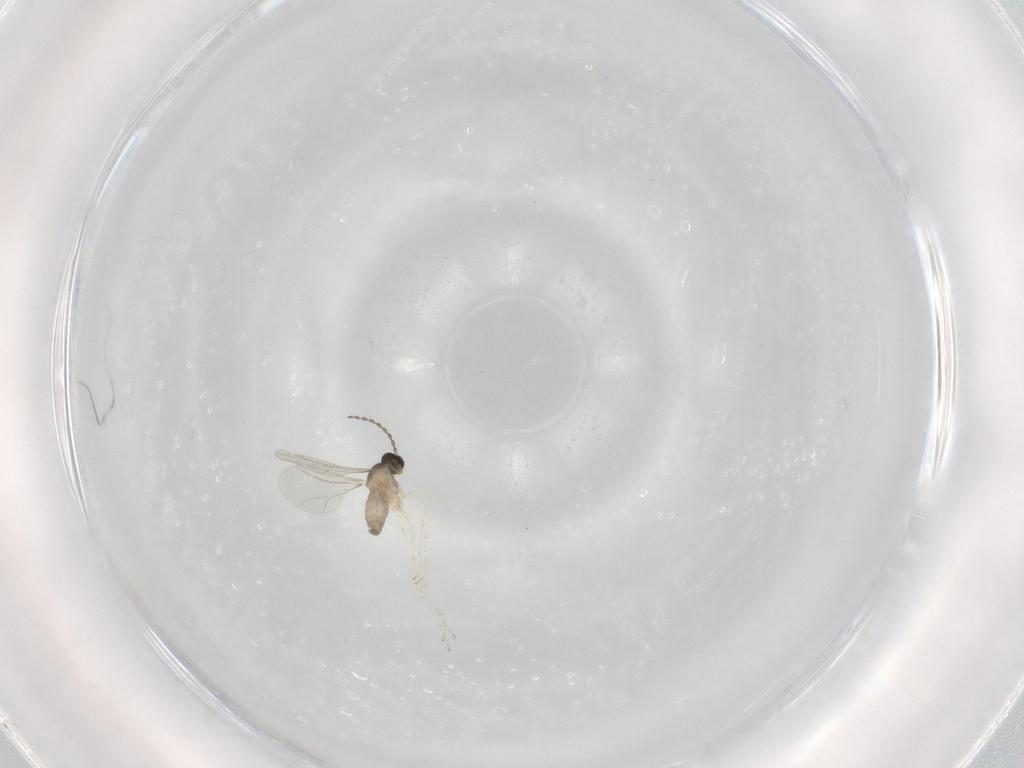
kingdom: Animalia
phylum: Arthropoda
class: Insecta
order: Diptera
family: Cecidomyiidae
